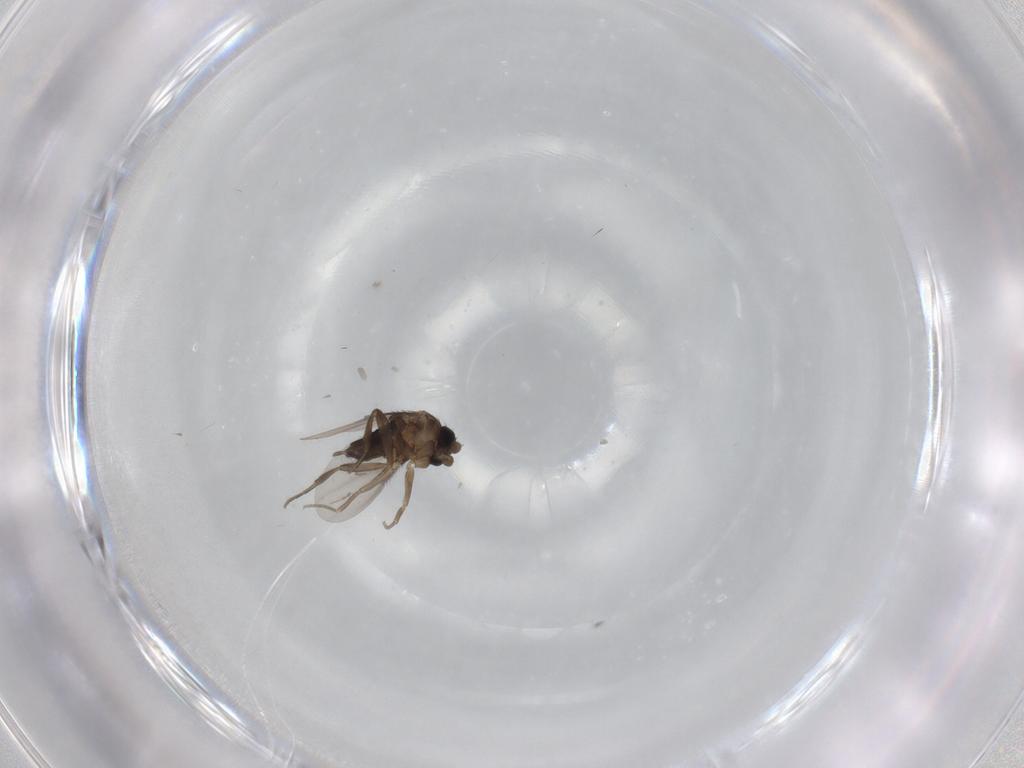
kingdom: Animalia
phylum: Arthropoda
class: Insecta
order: Diptera
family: Phoridae
